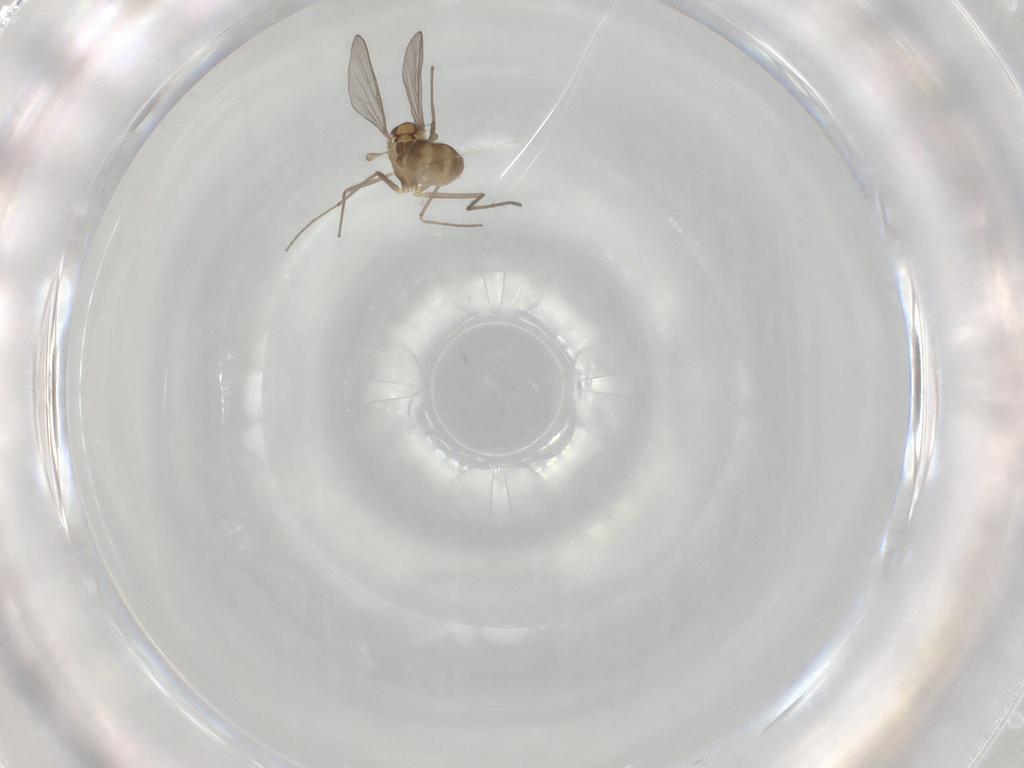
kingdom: Animalia
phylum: Arthropoda
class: Insecta
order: Diptera
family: Chironomidae
